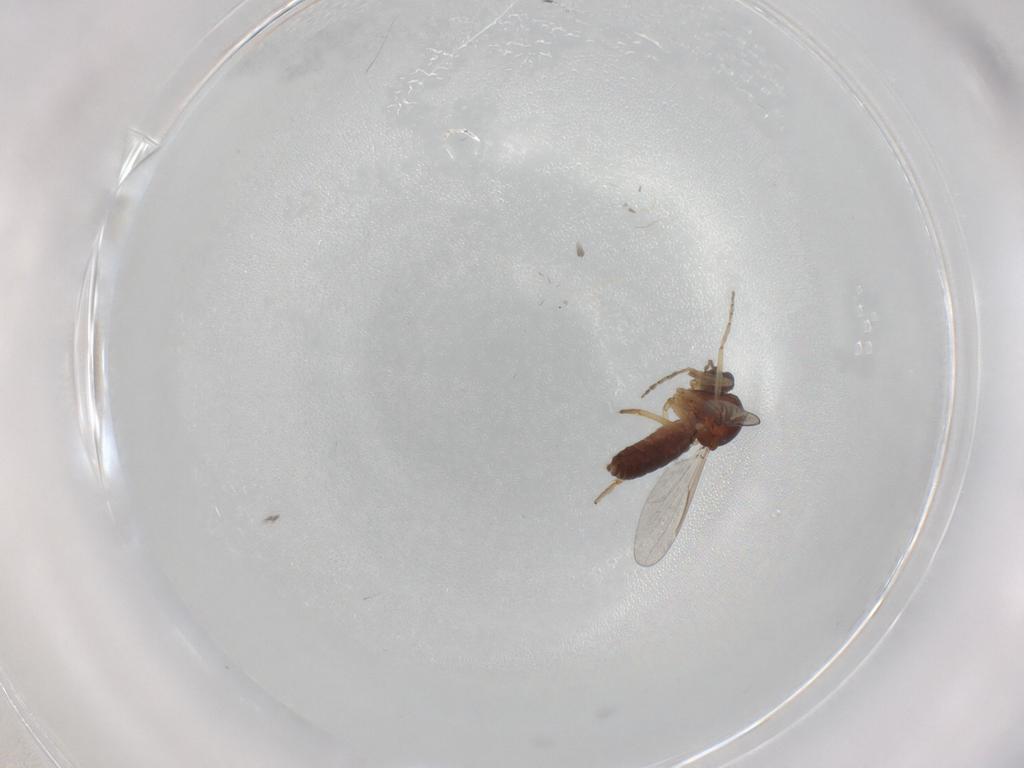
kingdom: Animalia
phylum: Arthropoda
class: Insecta
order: Diptera
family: Ceratopogonidae
